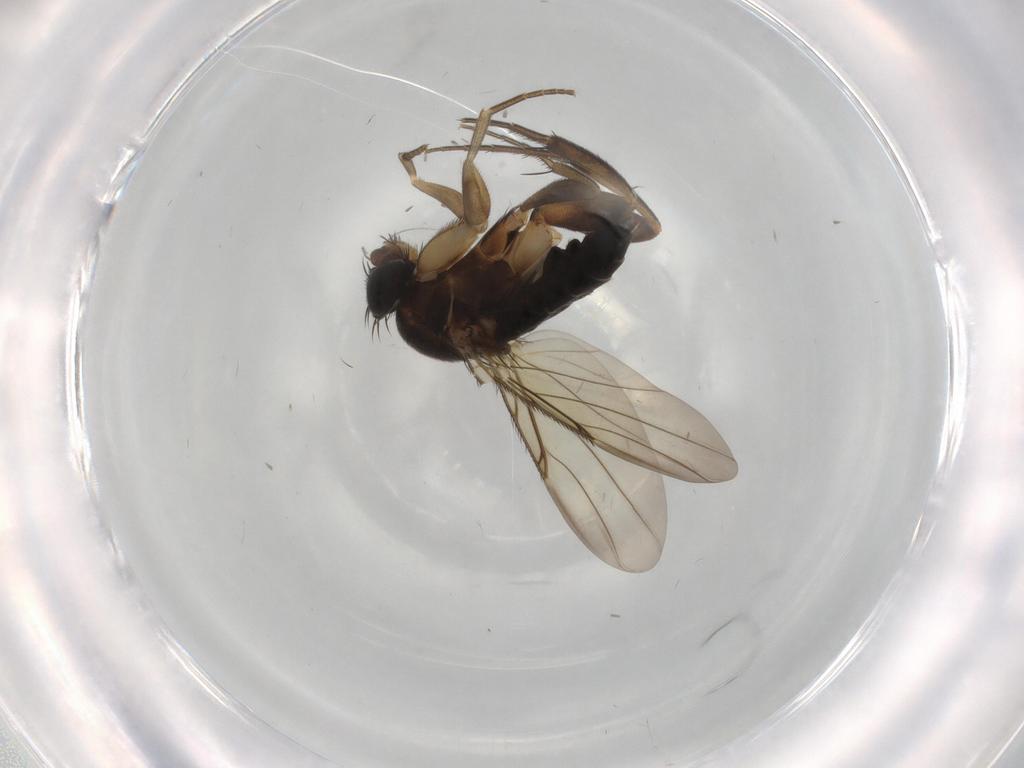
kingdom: Animalia
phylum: Arthropoda
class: Insecta
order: Diptera
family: Phoridae
